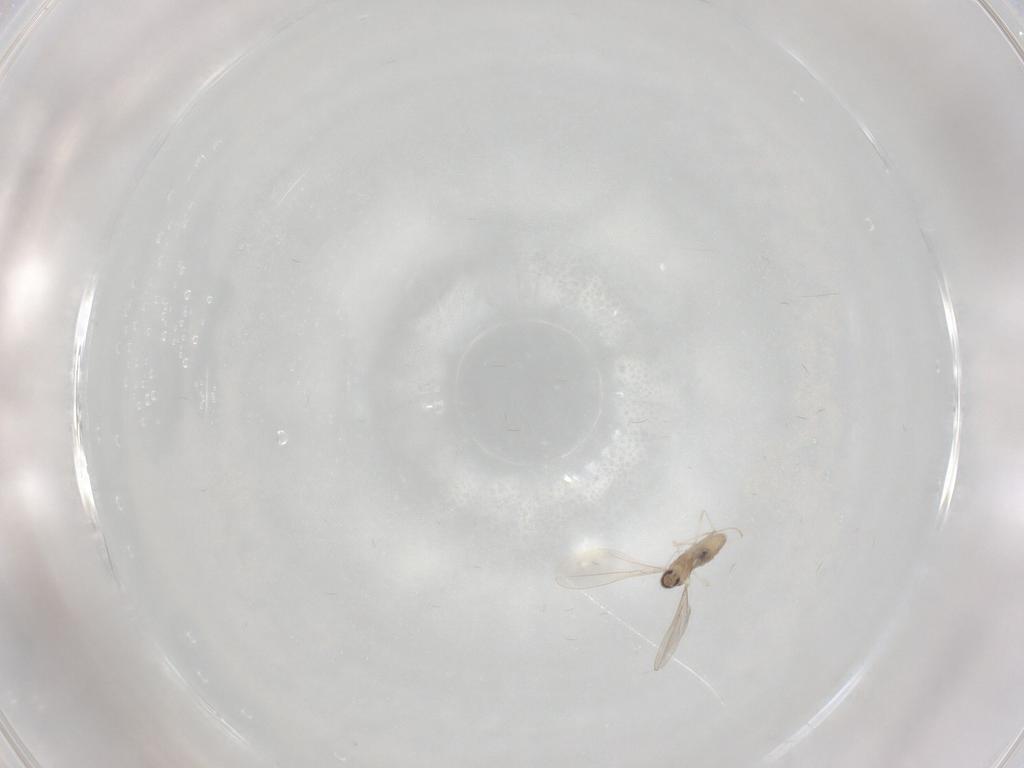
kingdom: Animalia
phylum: Arthropoda
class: Insecta
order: Diptera
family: Cecidomyiidae
